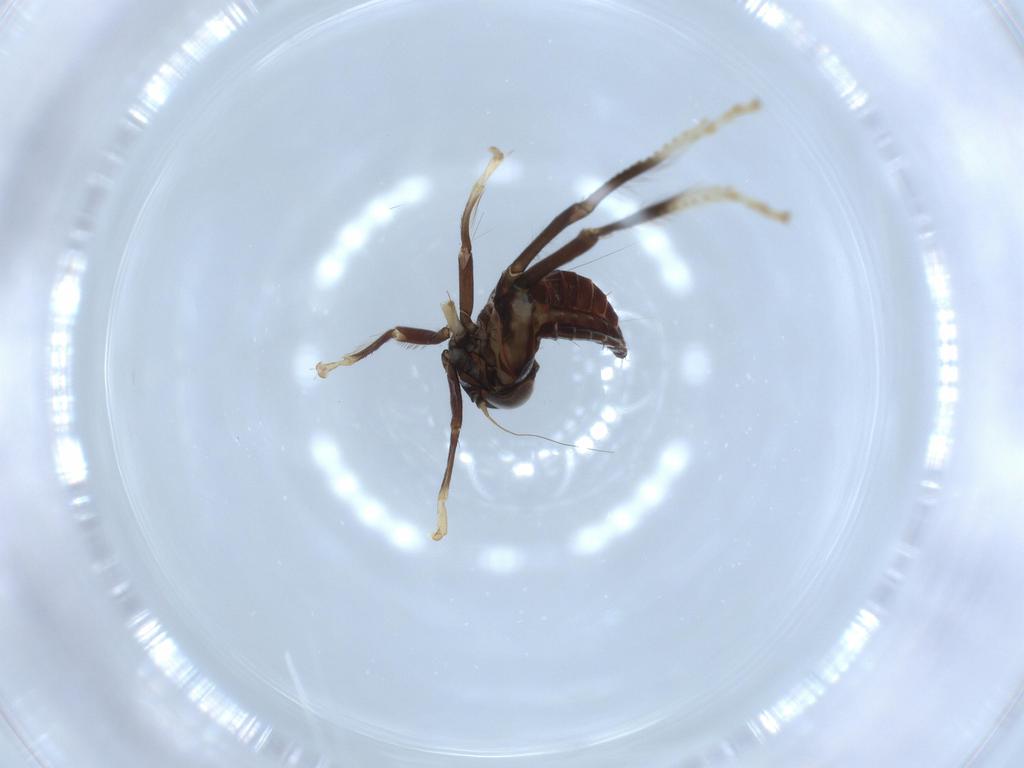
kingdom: Animalia
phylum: Arthropoda
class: Insecta
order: Hemiptera
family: Cicadellidae
